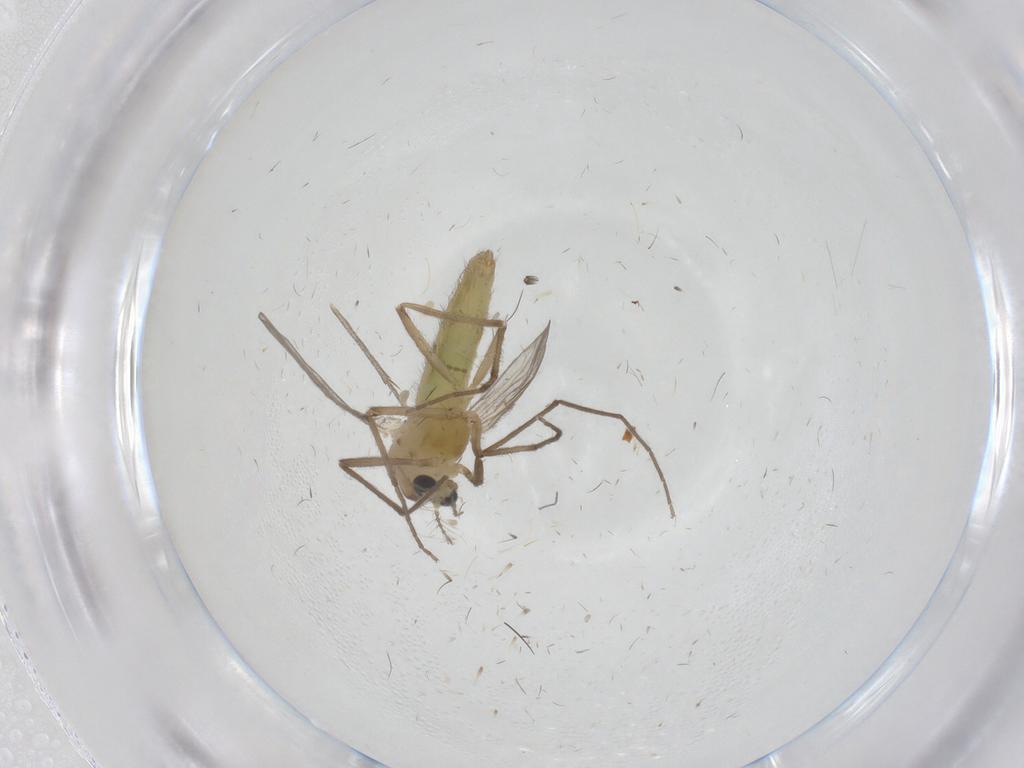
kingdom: Animalia
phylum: Arthropoda
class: Insecta
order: Diptera
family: Chironomidae
